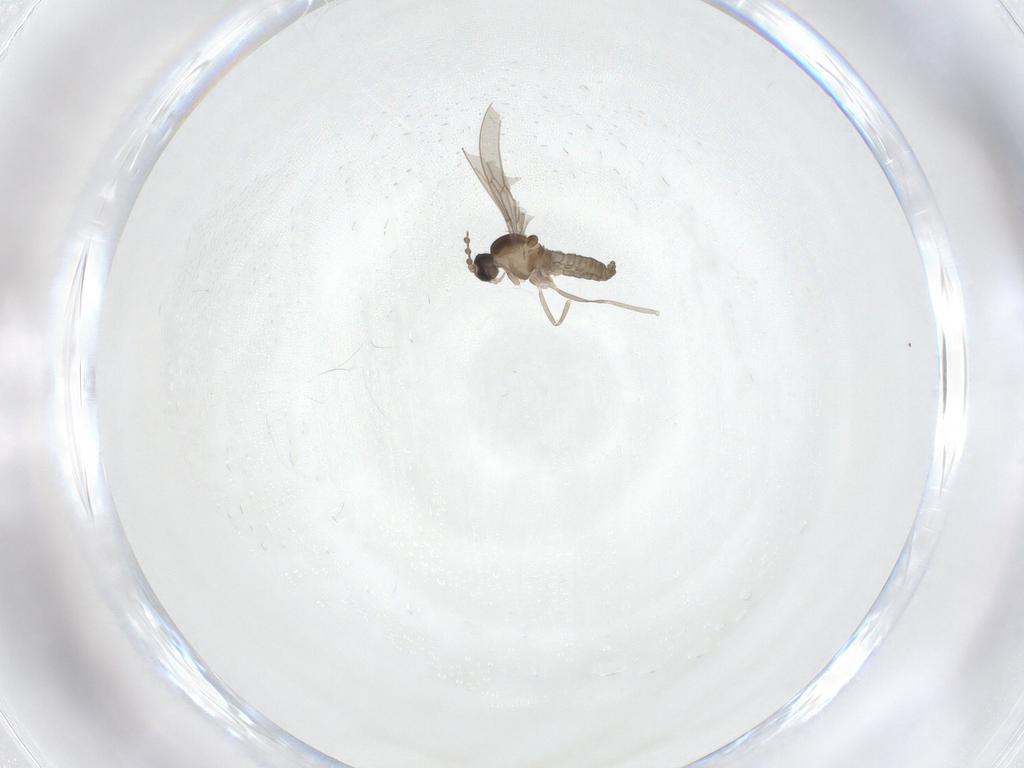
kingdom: Animalia
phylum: Arthropoda
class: Insecta
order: Diptera
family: Cecidomyiidae
